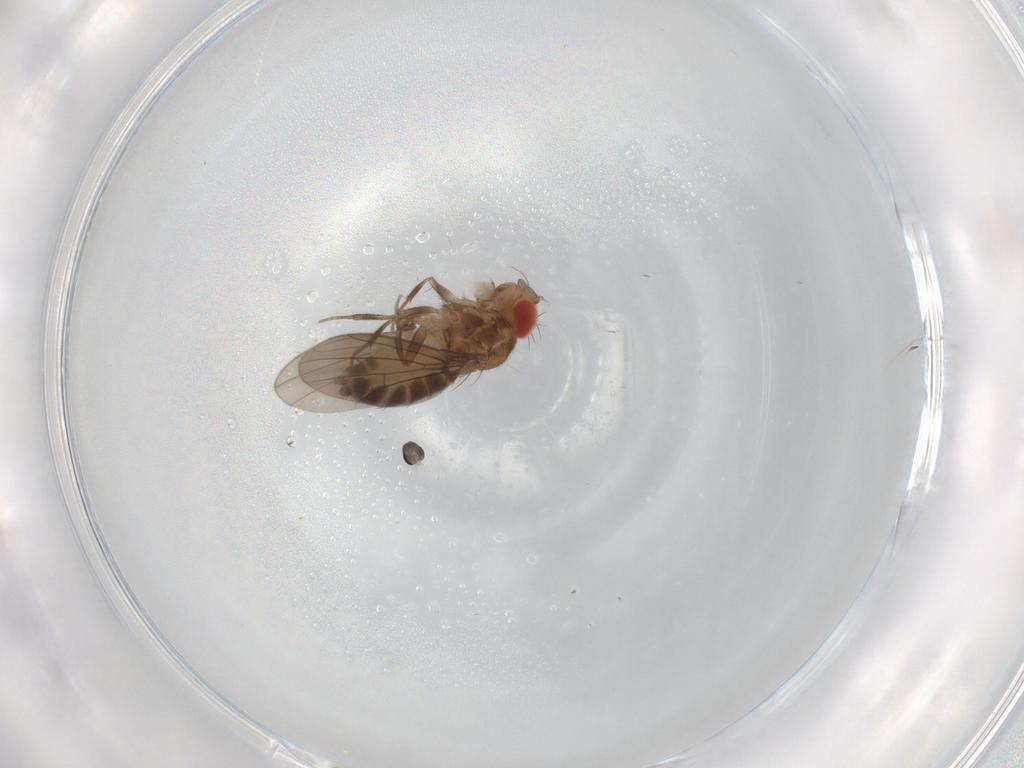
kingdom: Animalia
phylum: Arthropoda
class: Insecta
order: Diptera
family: Drosophilidae
